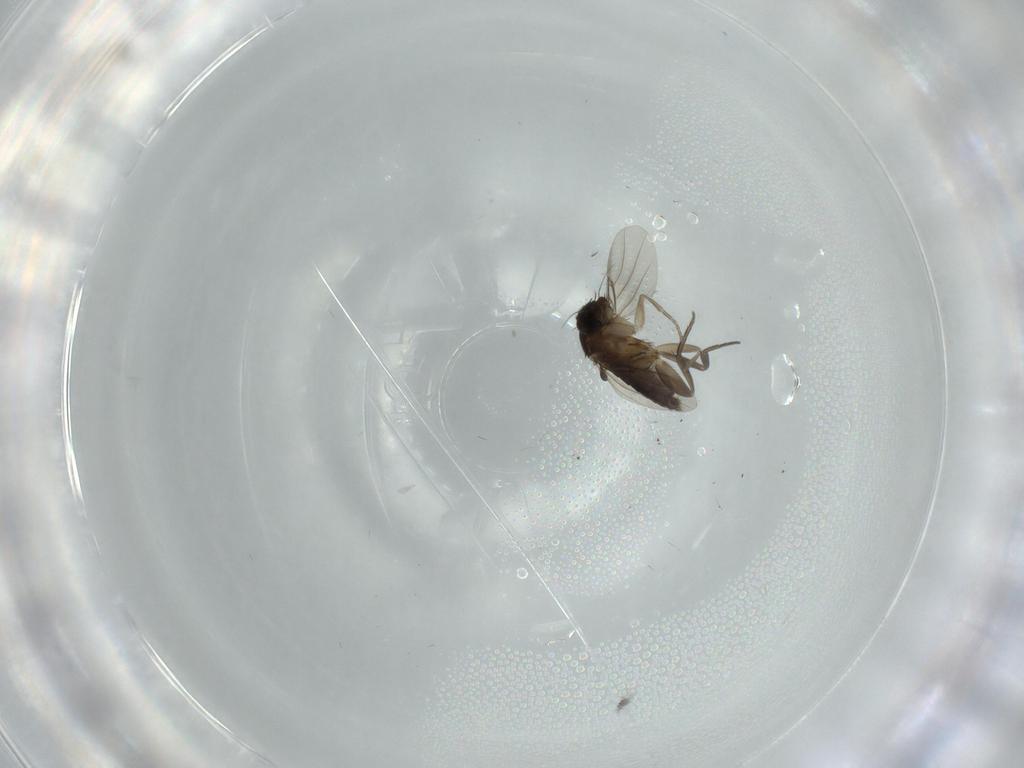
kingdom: Animalia
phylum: Arthropoda
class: Insecta
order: Diptera
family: Phoridae
